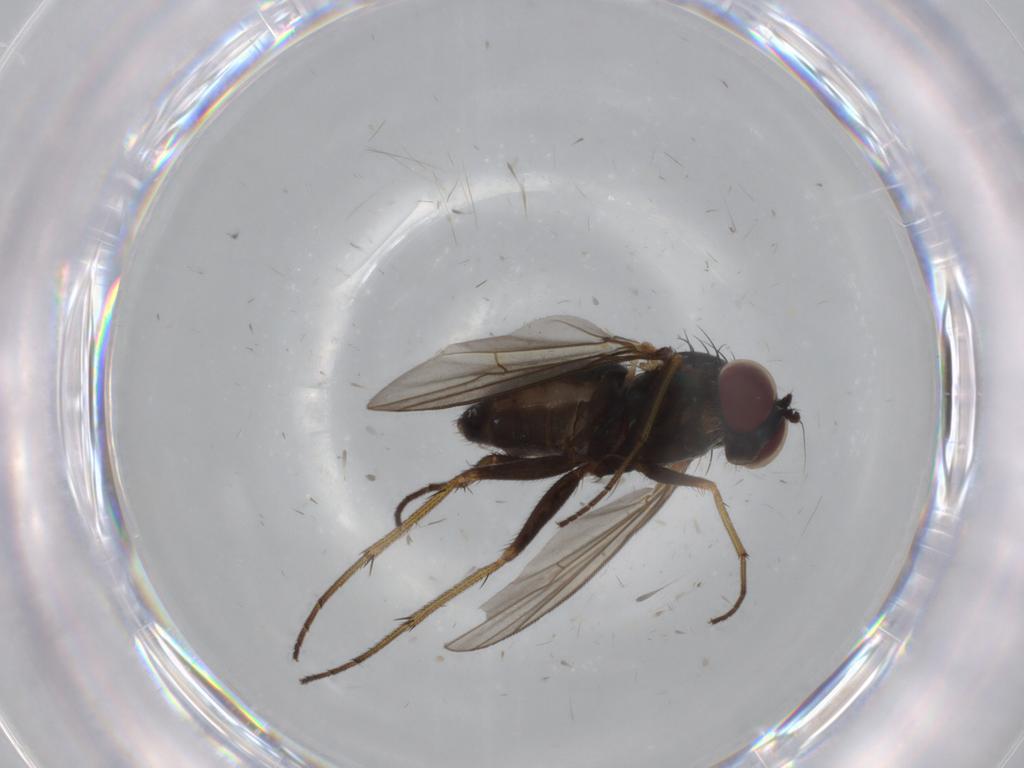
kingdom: Animalia
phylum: Arthropoda
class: Insecta
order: Diptera
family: Dolichopodidae
